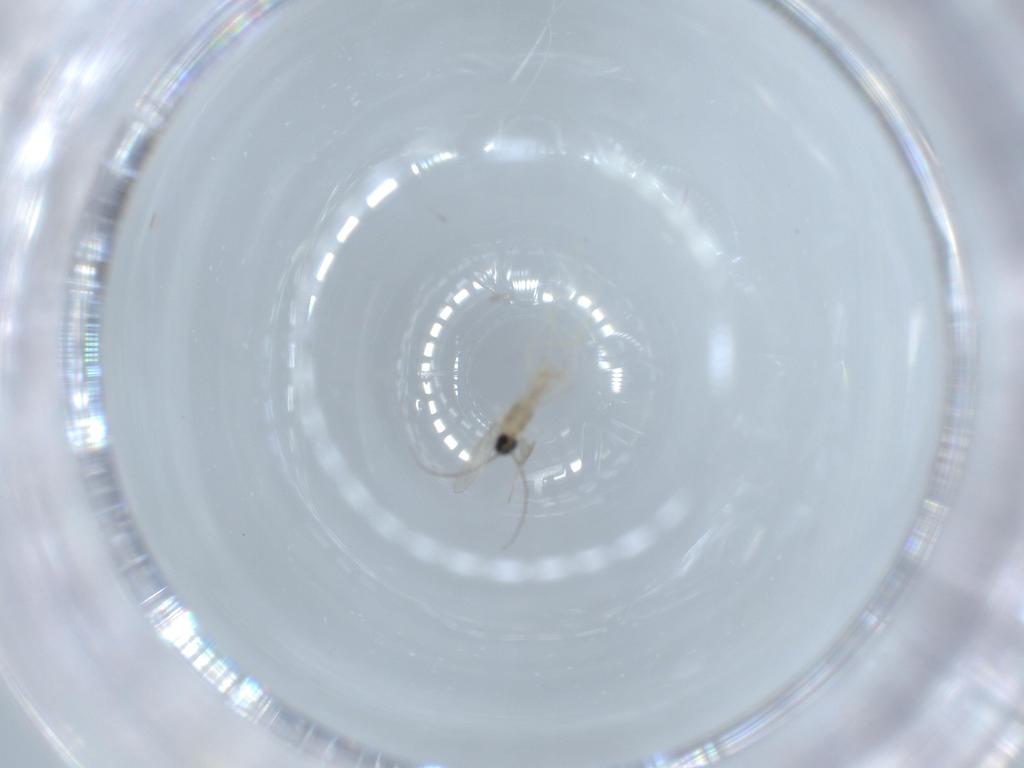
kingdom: Animalia
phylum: Arthropoda
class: Insecta
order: Diptera
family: Cecidomyiidae
